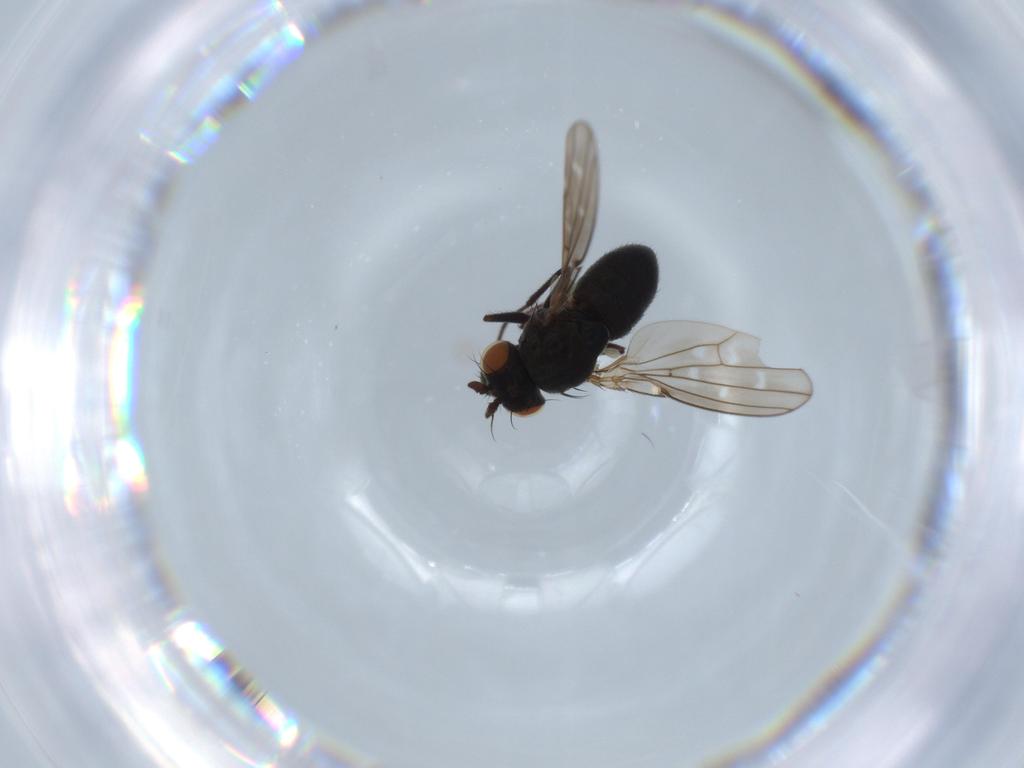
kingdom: Animalia
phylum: Arthropoda
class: Insecta
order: Diptera
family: Ephydridae
